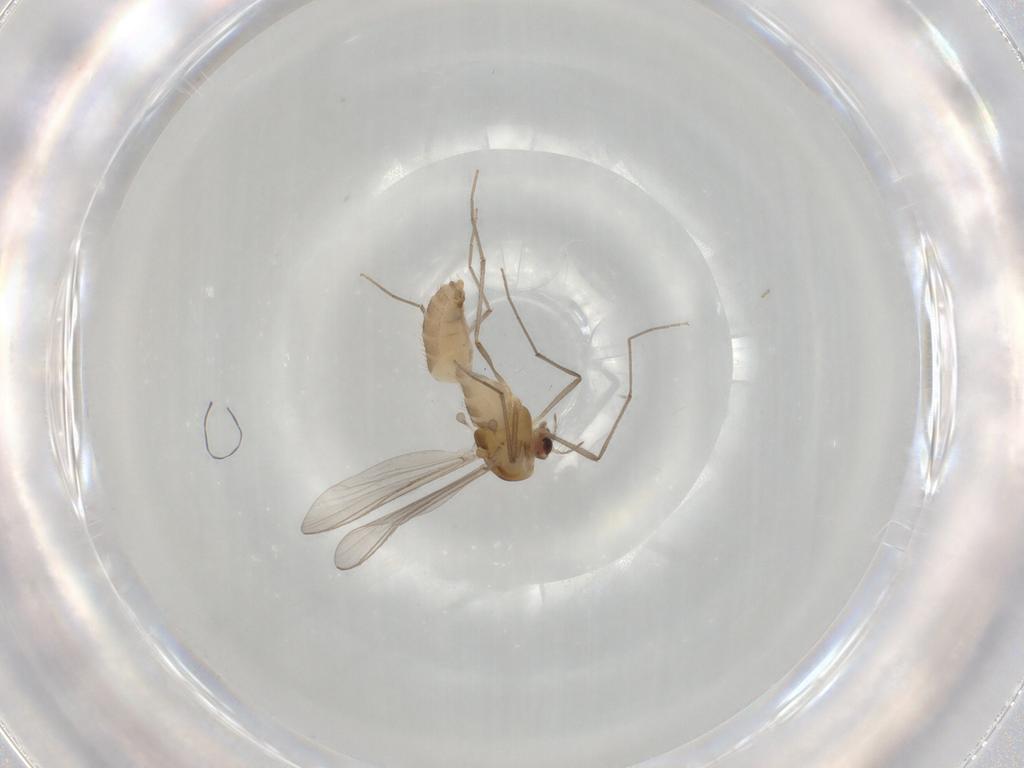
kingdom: Animalia
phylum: Arthropoda
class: Insecta
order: Diptera
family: Chironomidae
